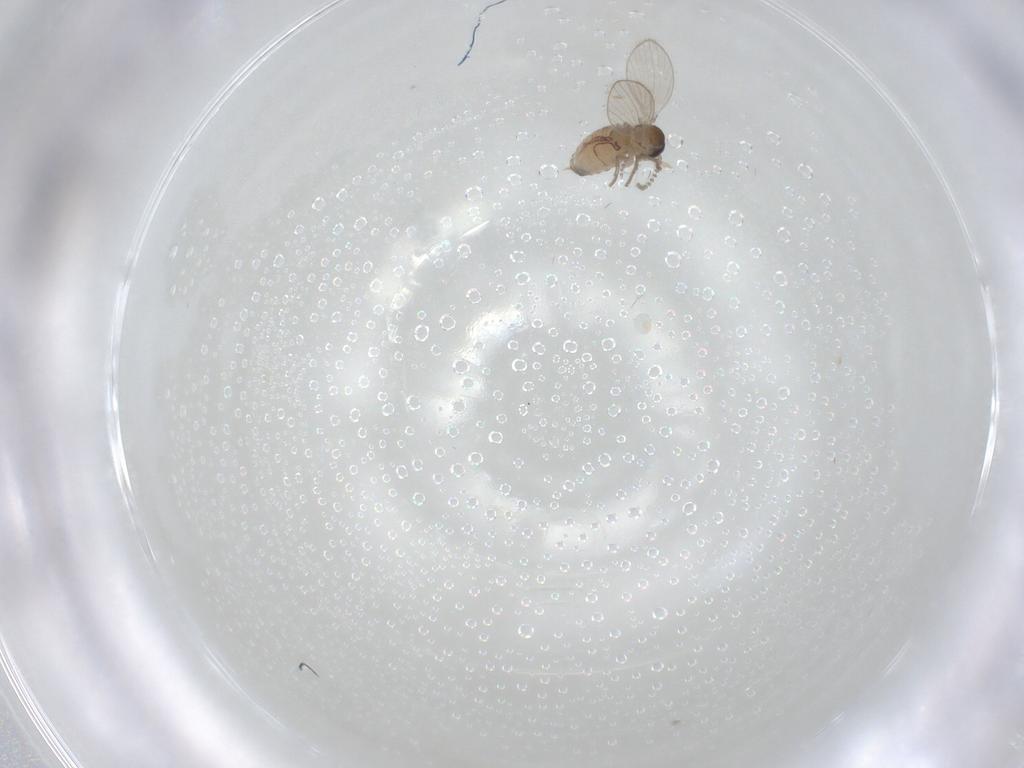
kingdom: Animalia
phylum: Arthropoda
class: Insecta
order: Diptera
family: Psychodidae
